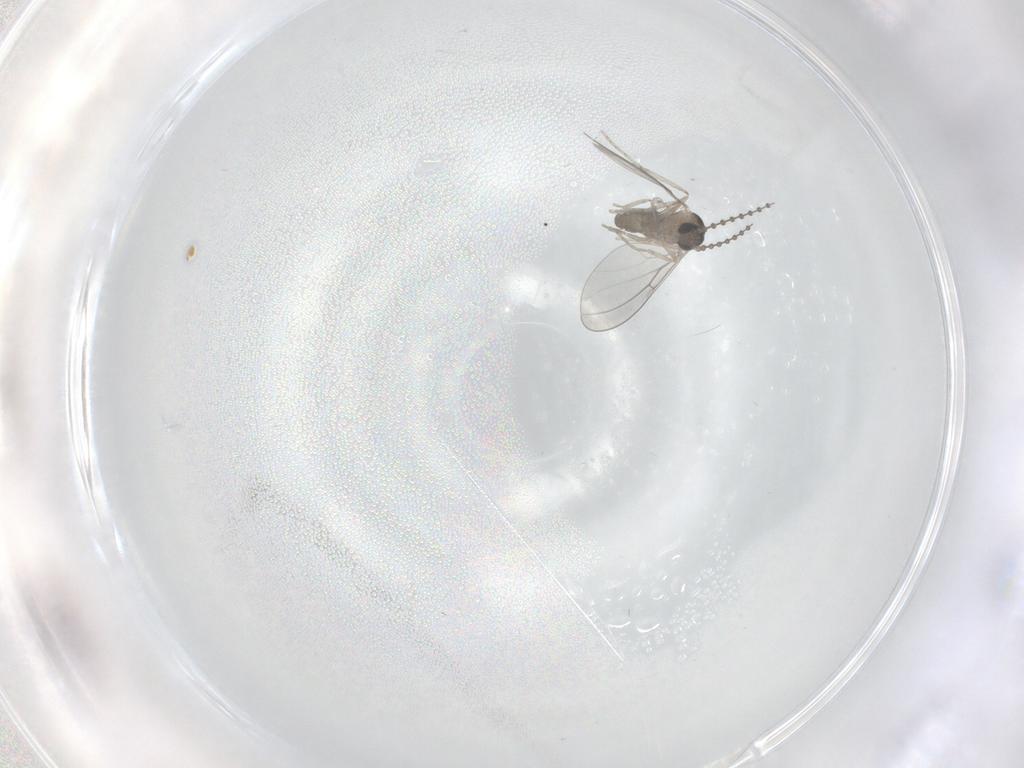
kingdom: Animalia
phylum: Arthropoda
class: Insecta
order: Diptera
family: Cecidomyiidae
